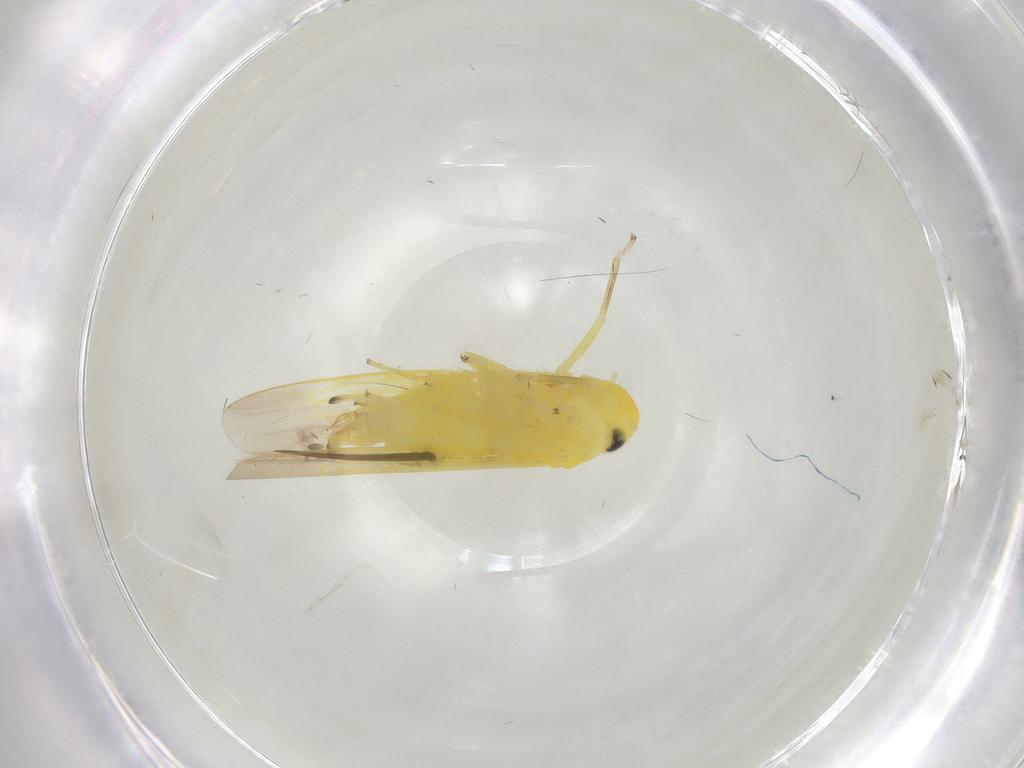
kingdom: Animalia
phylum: Arthropoda
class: Insecta
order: Hemiptera
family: Cicadellidae
